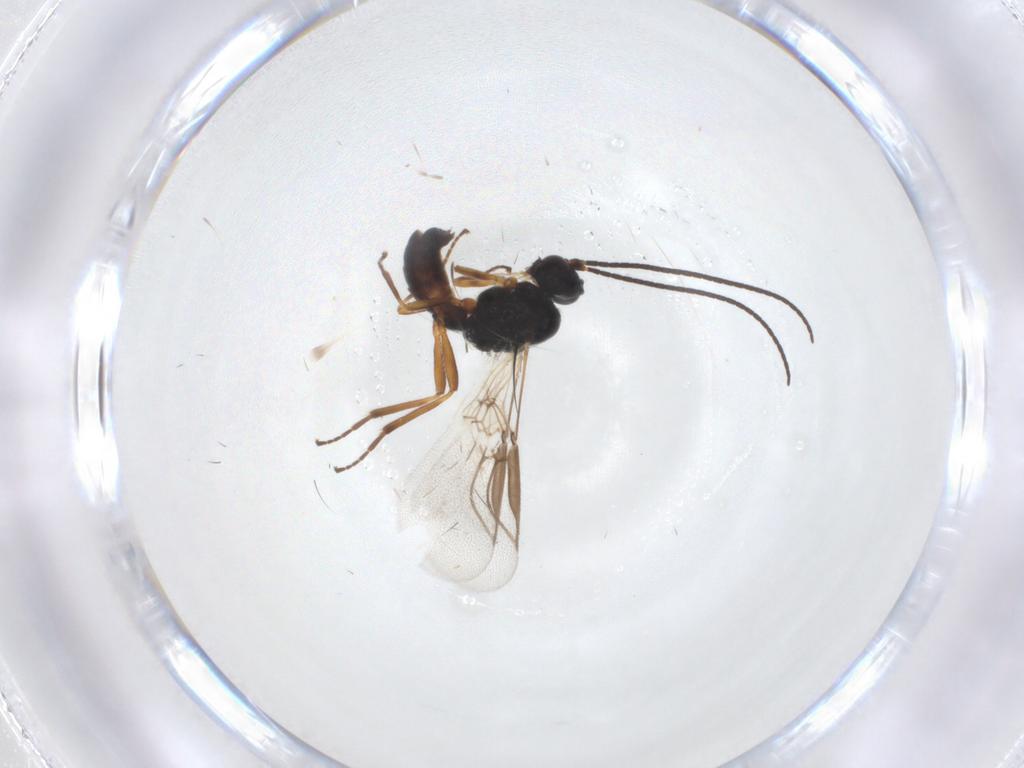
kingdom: Animalia
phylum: Arthropoda
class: Insecta
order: Hymenoptera
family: Braconidae
